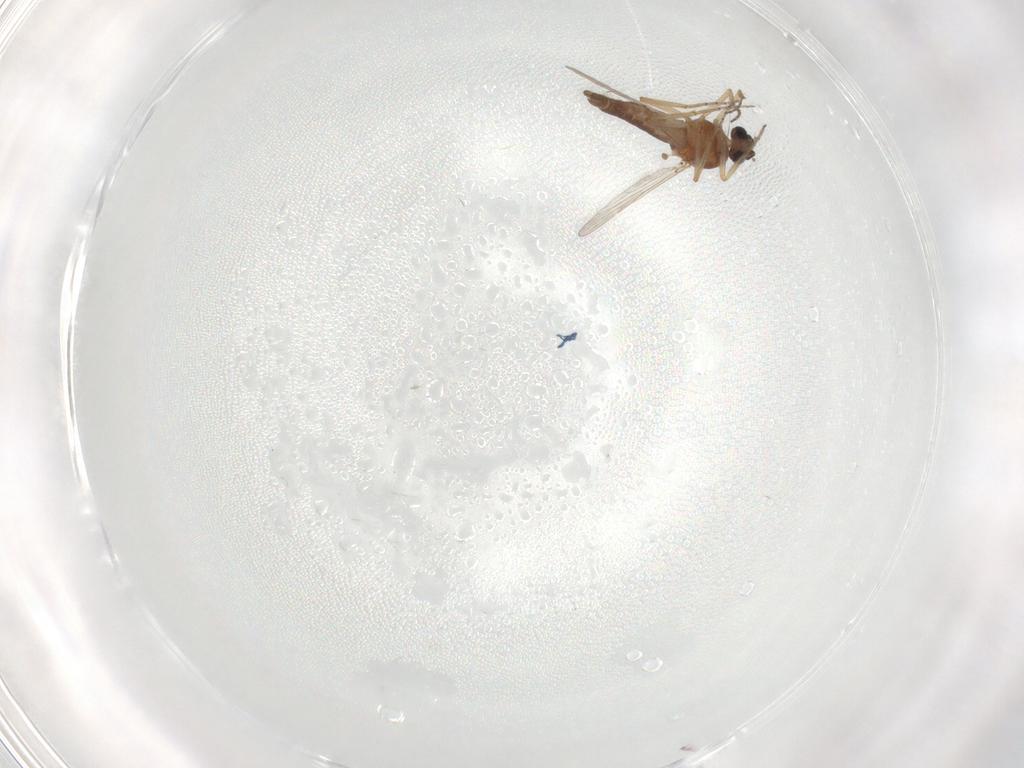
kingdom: Animalia
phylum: Arthropoda
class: Insecta
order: Diptera
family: Ceratopogonidae
